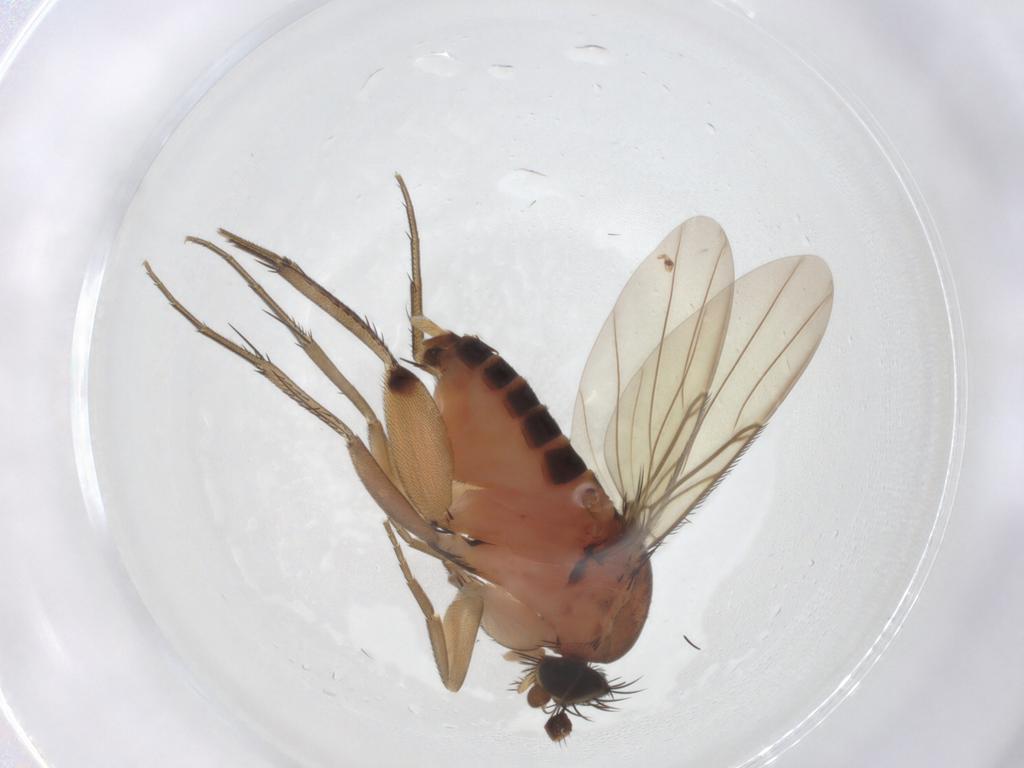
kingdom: Animalia
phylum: Arthropoda
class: Insecta
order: Diptera
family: Phoridae
